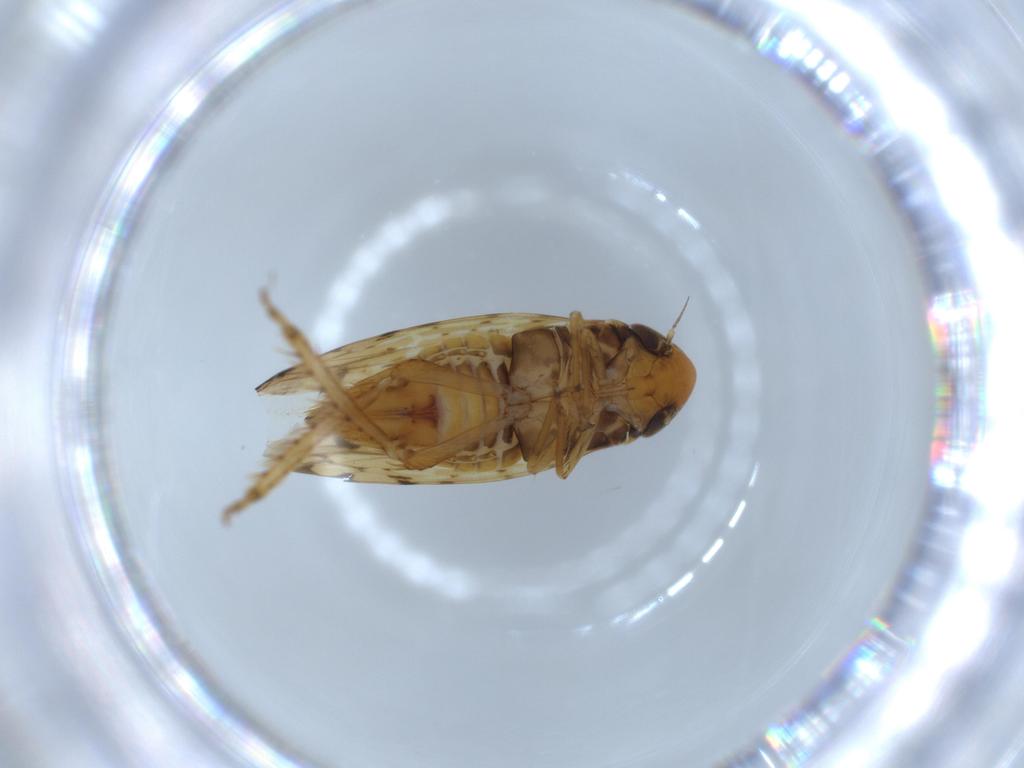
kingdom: Animalia
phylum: Arthropoda
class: Insecta
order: Hemiptera
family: Cicadellidae
